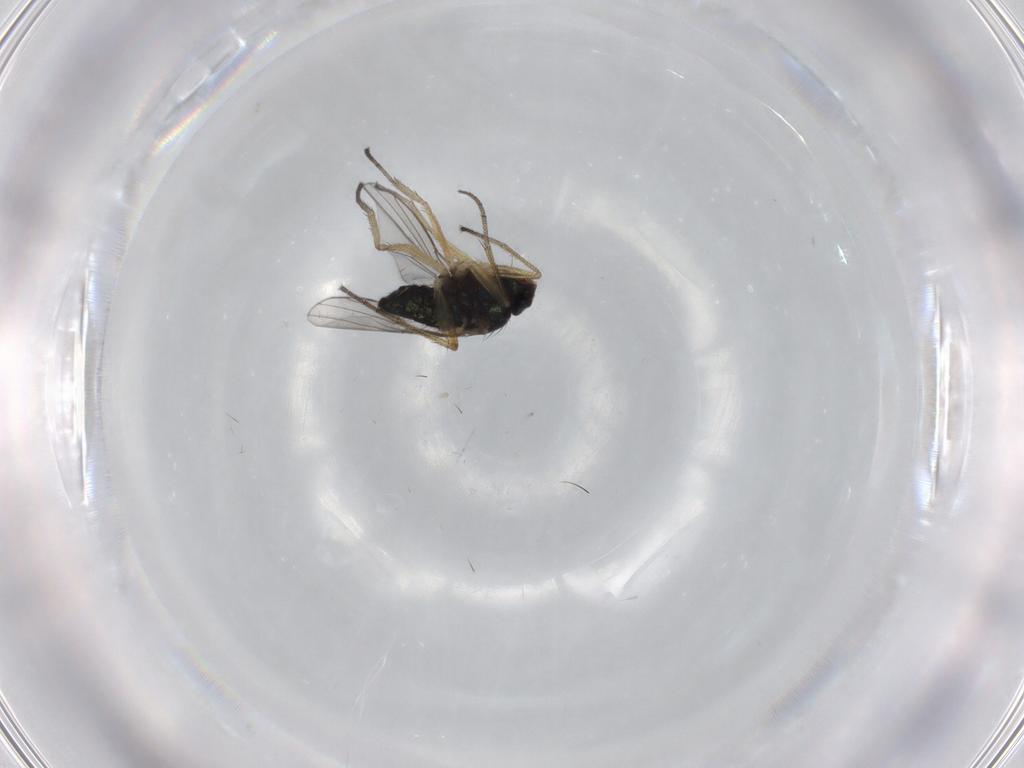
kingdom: Animalia
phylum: Arthropoda
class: Insecta
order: Diptera
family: Dolichopodidae
